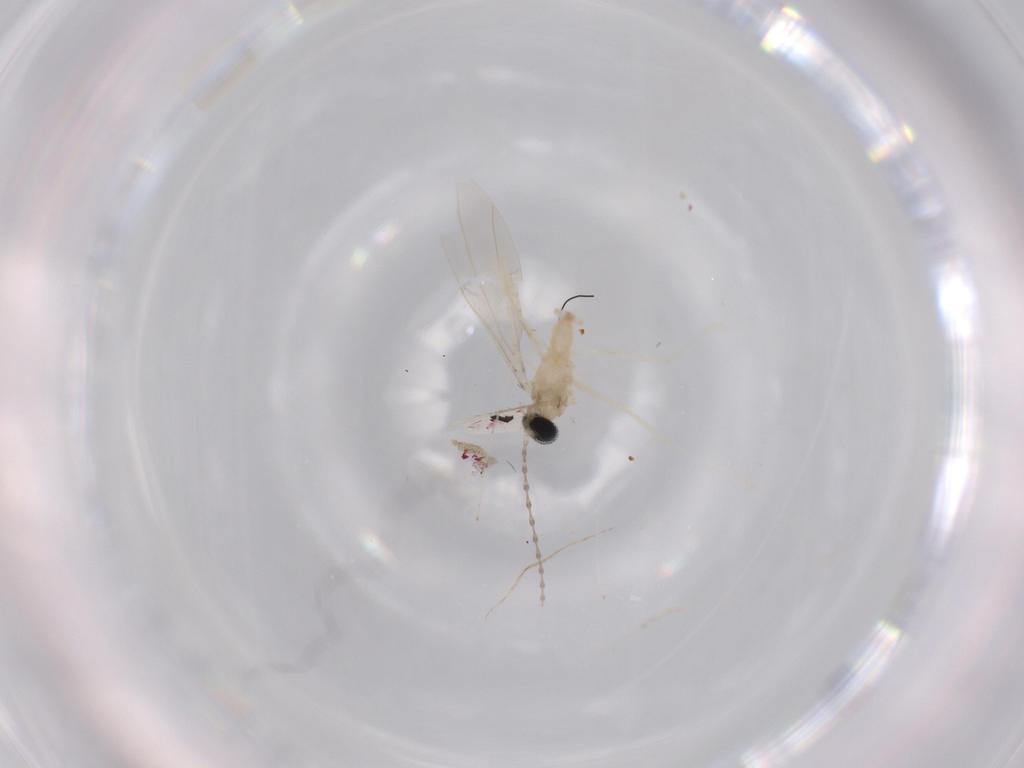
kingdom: Animalia
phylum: Arthropoda
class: Insecta
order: Diptera
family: Cecidomyiidae
